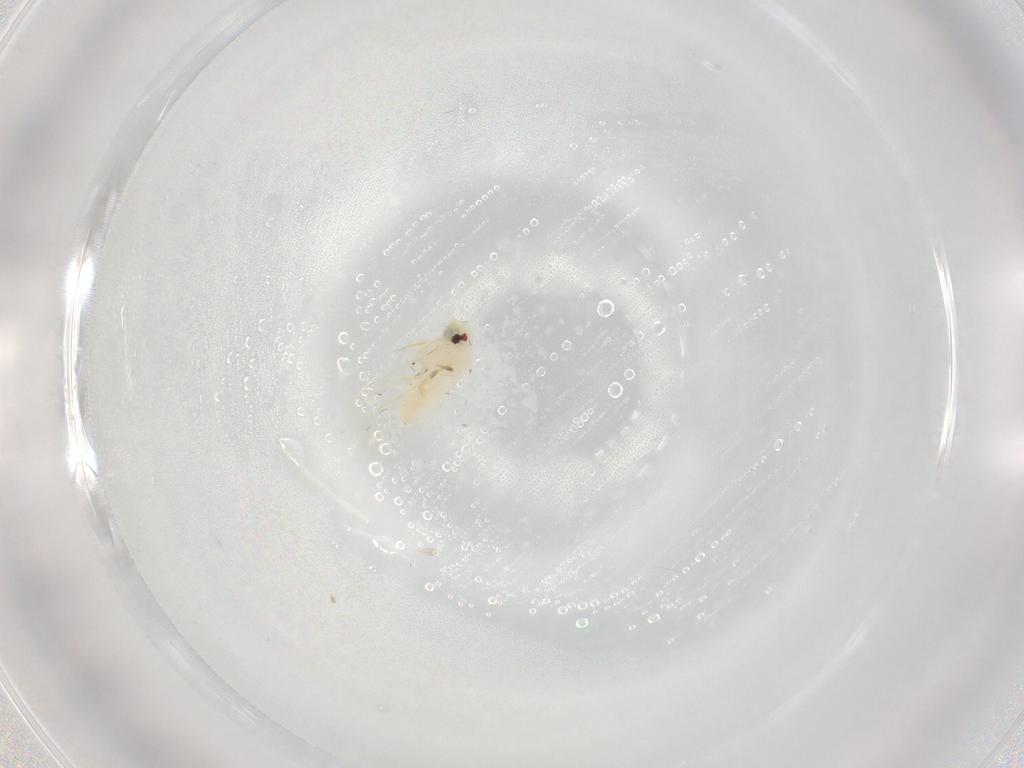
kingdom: Animalia
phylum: Arthropoda
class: Insecta
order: Hemiptera
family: Aleyrodidae
